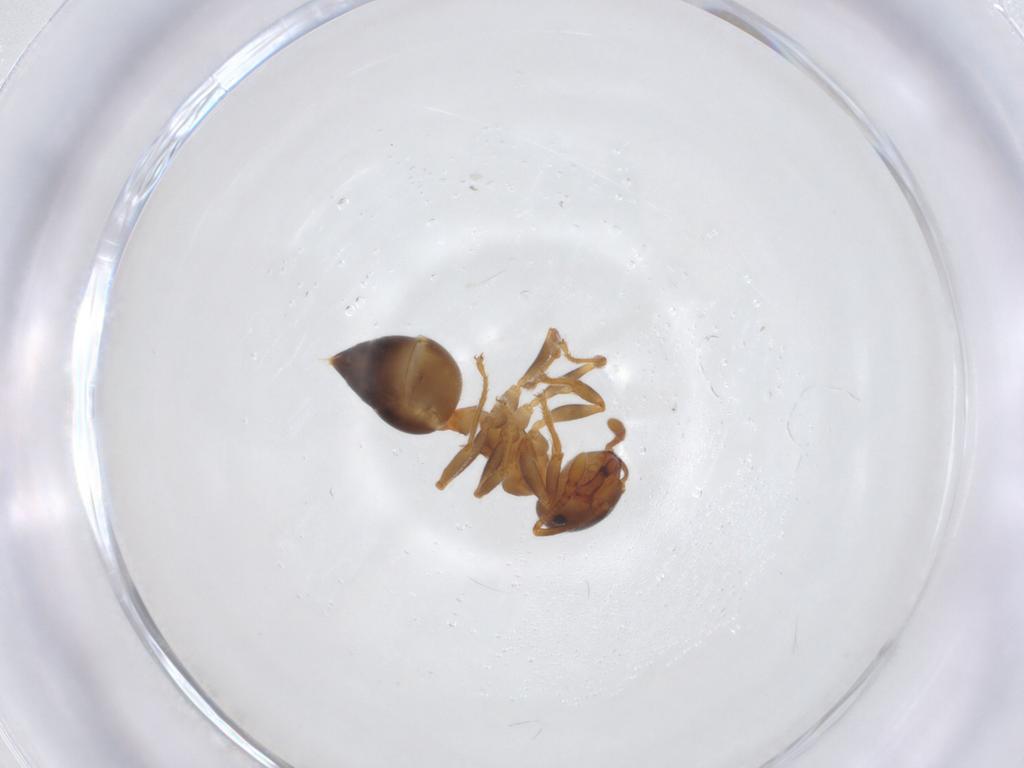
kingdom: Animalia
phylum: Arthropoda
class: Insecta
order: Hymenoptera
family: Formicidae
